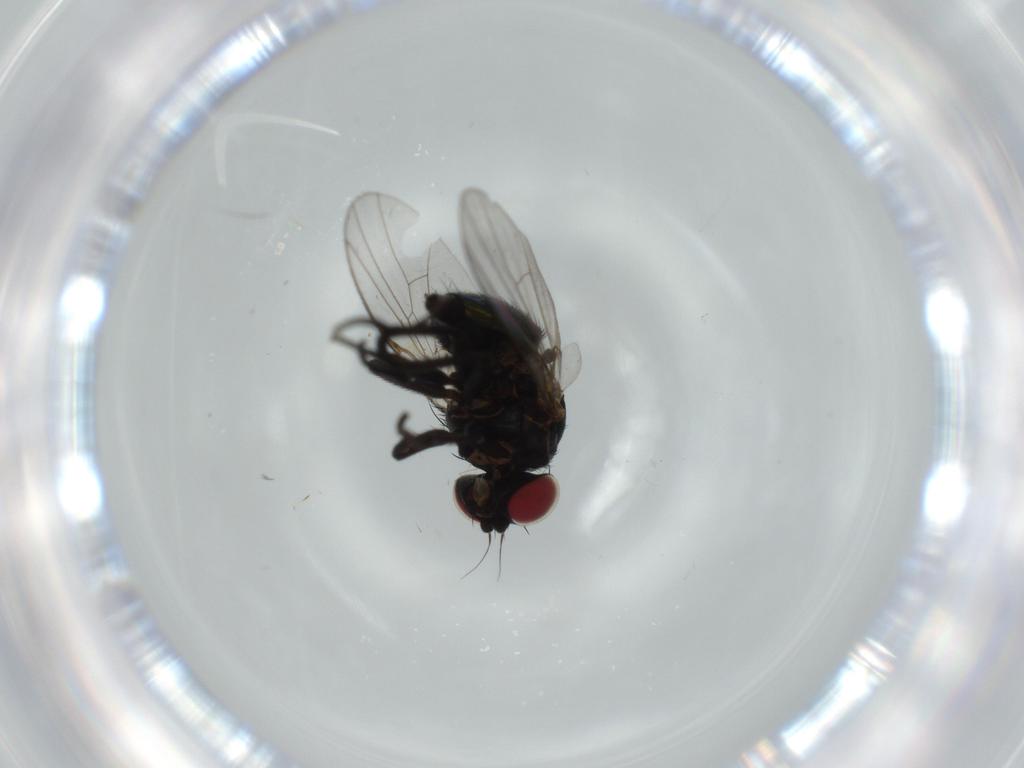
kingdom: Animalia
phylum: Arthropoda
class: Insecta
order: Diptera
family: Agromyzidae
